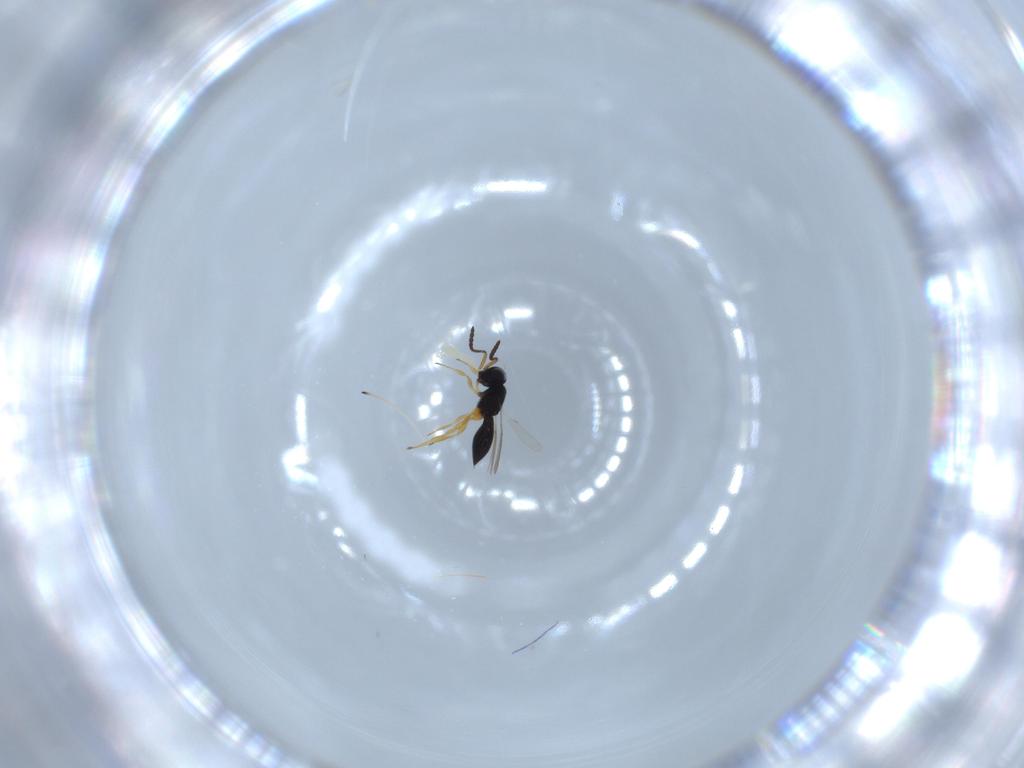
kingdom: Animalia
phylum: Arthropoda
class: Insecta
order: Hymenoptera
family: Scelionidae
